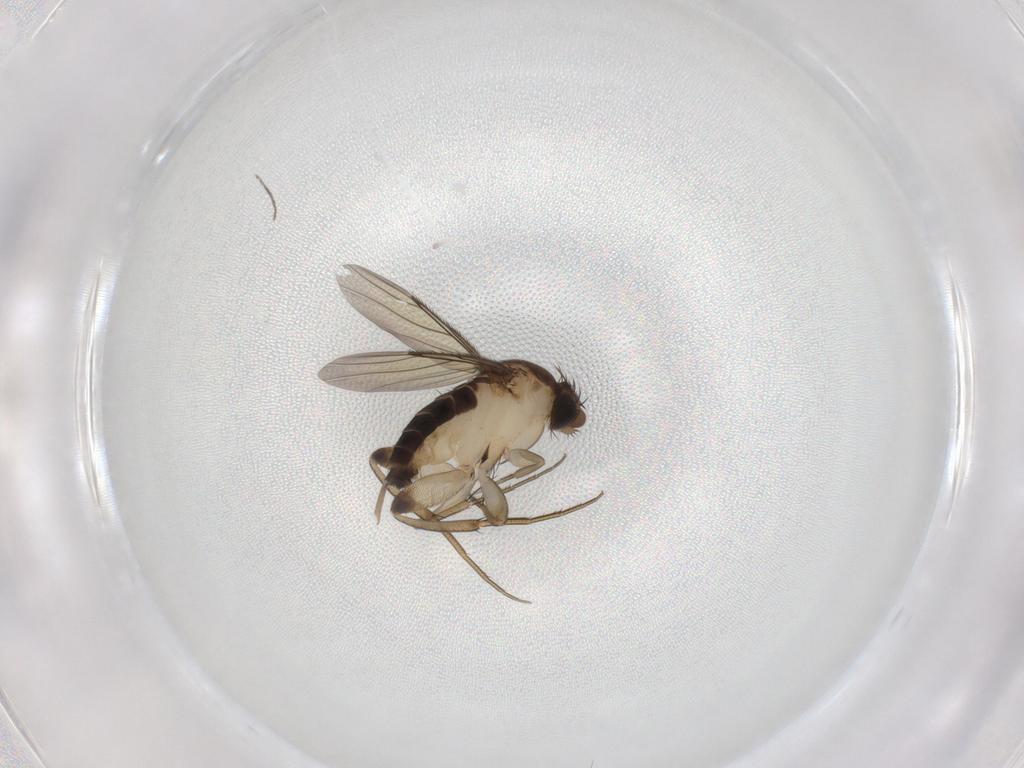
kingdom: Animalia
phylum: Arthropoda
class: Insecta
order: Diptera
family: Phoridae
